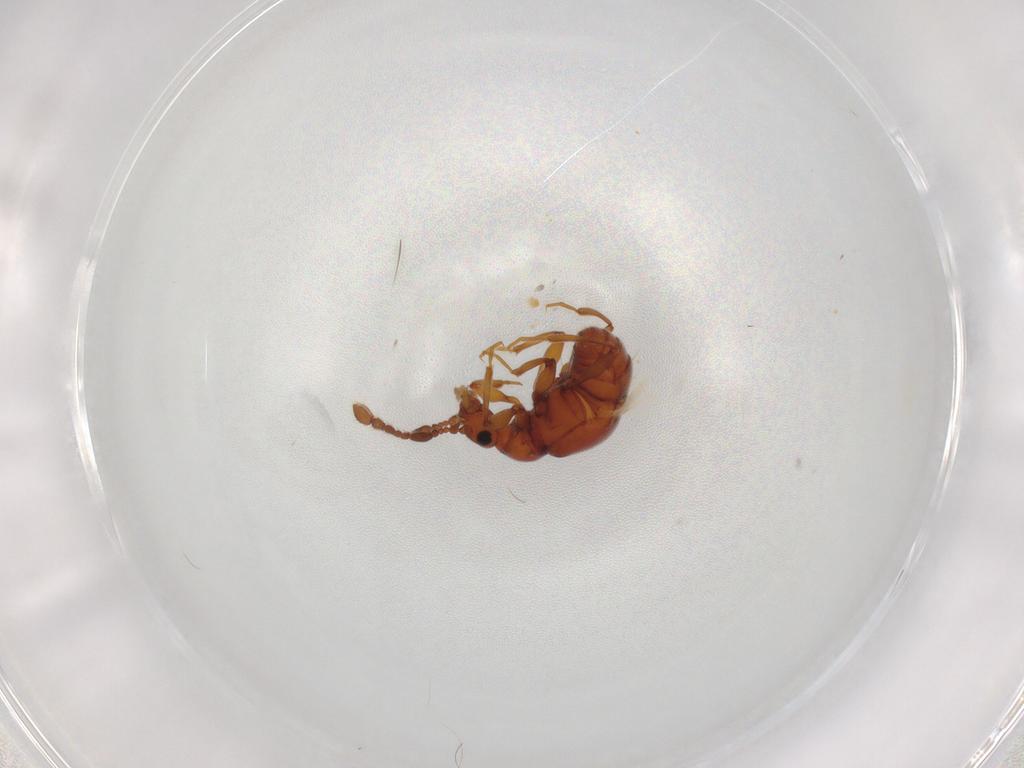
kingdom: Animalia
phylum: Arthropoda
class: Insecta
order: Coleoptera
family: Staphylinidae
